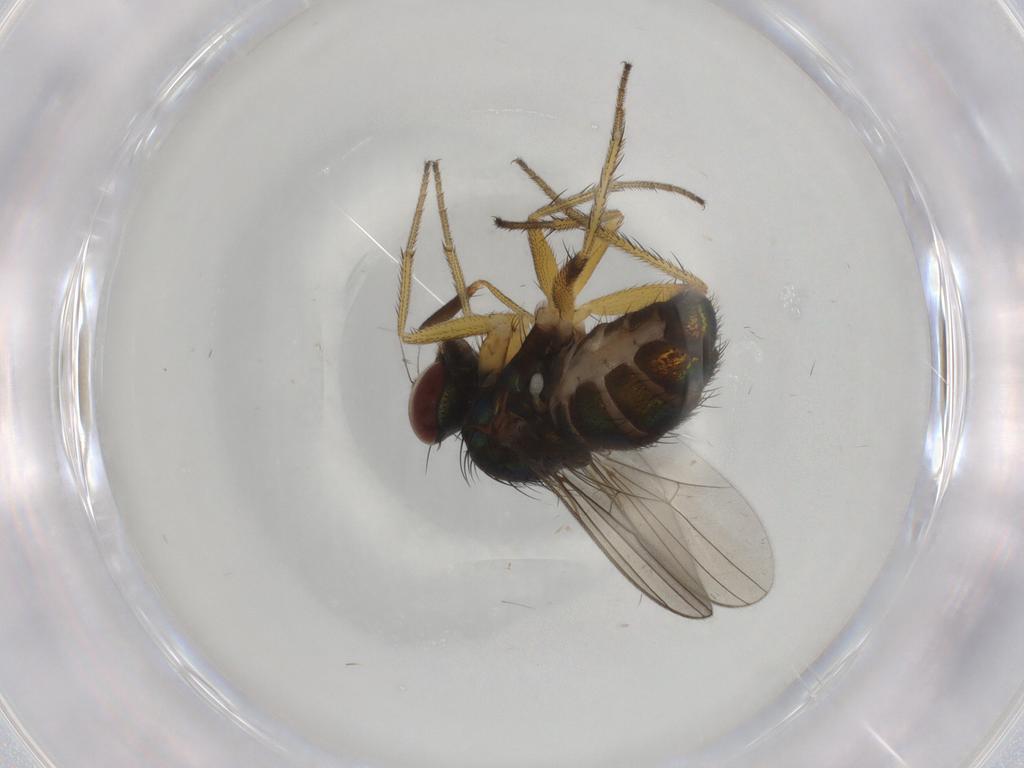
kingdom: Animalia
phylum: Arthropoda
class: Insecta
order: Diptera
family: Dolichopodidae
